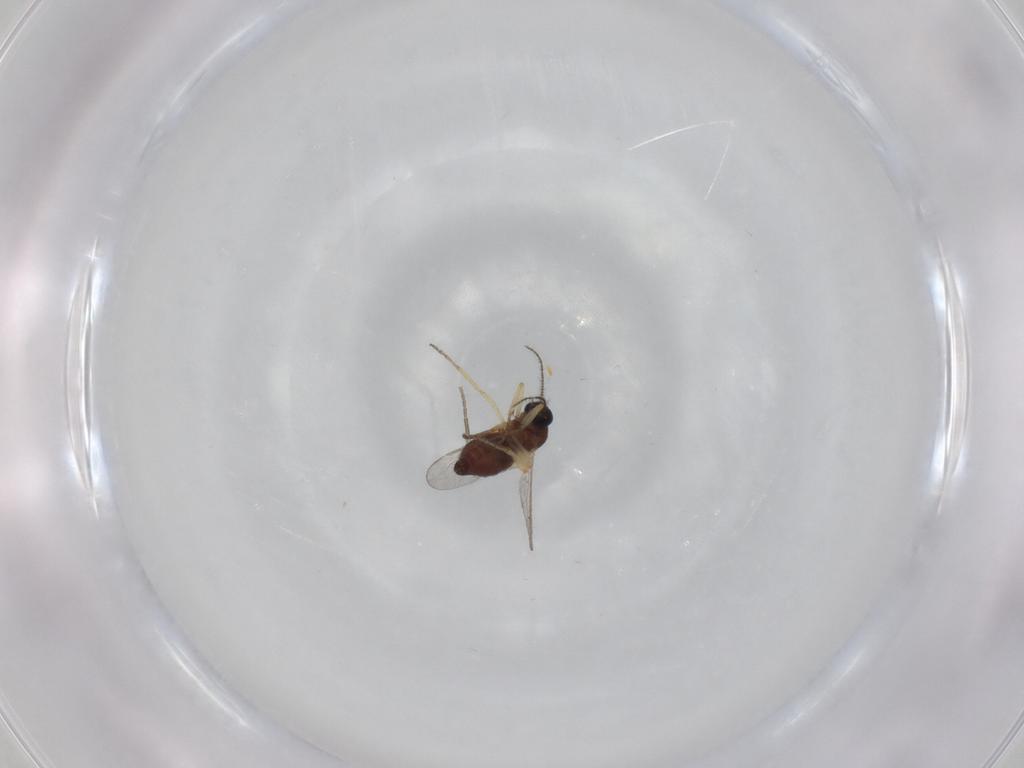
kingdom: Animalia
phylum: Arthropoda
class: Insecta
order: Diptera
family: Ceratopogonidae
